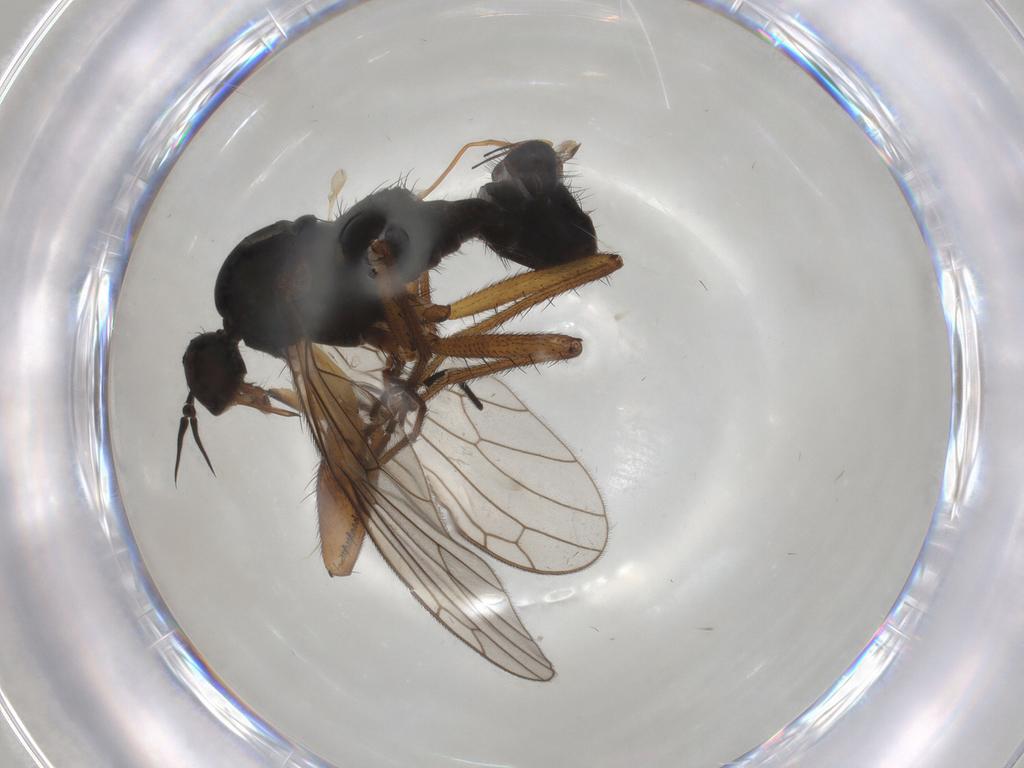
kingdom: Animalia
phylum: Arthropoda
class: Insecta
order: Diptera
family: Empididae
